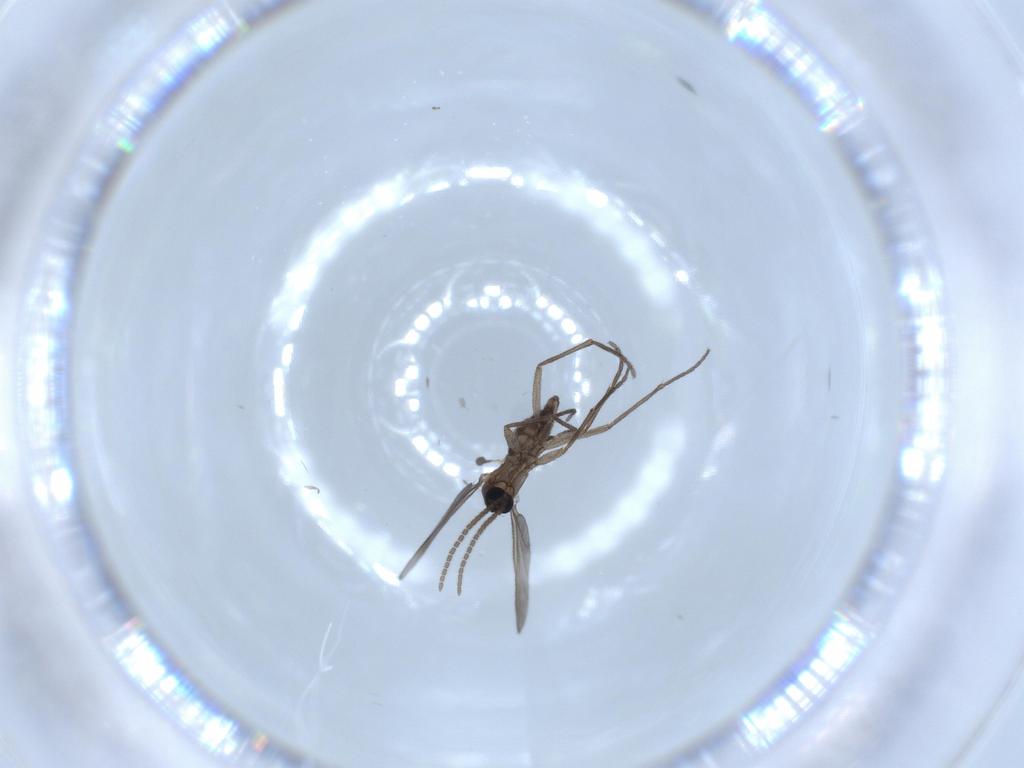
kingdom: Animalia
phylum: Arthropoda
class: Insecta
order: Diptera
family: Sciaridae
